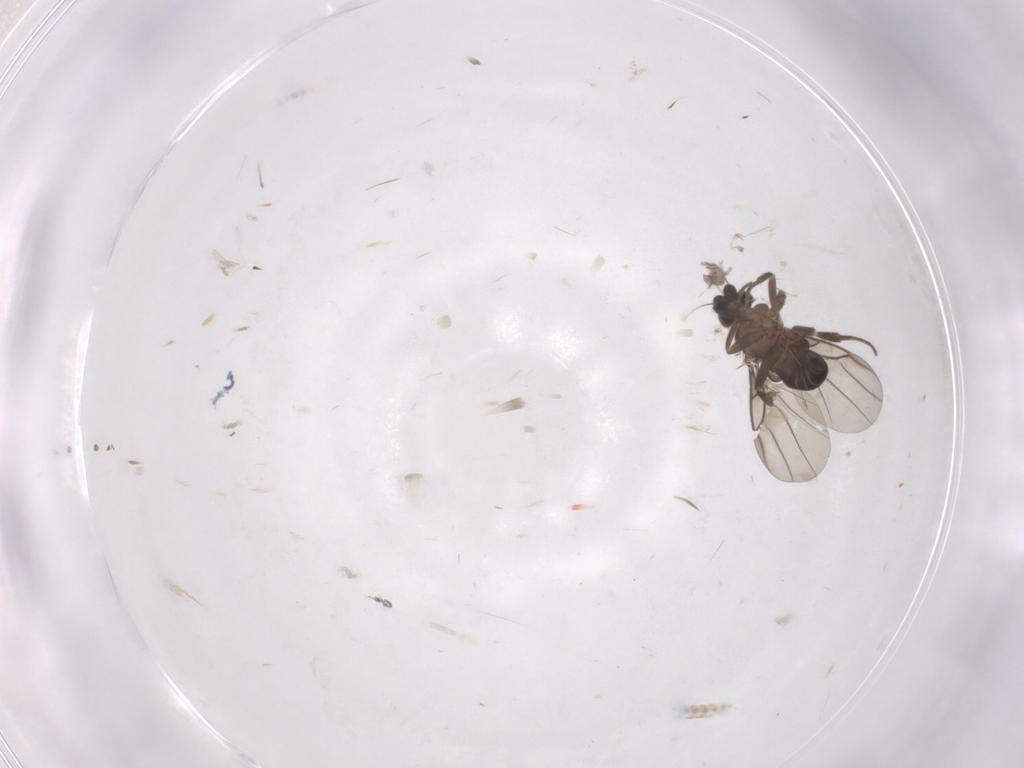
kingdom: Animalia
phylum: Arthropoda
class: Insecta
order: Diptera
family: Phoridae
